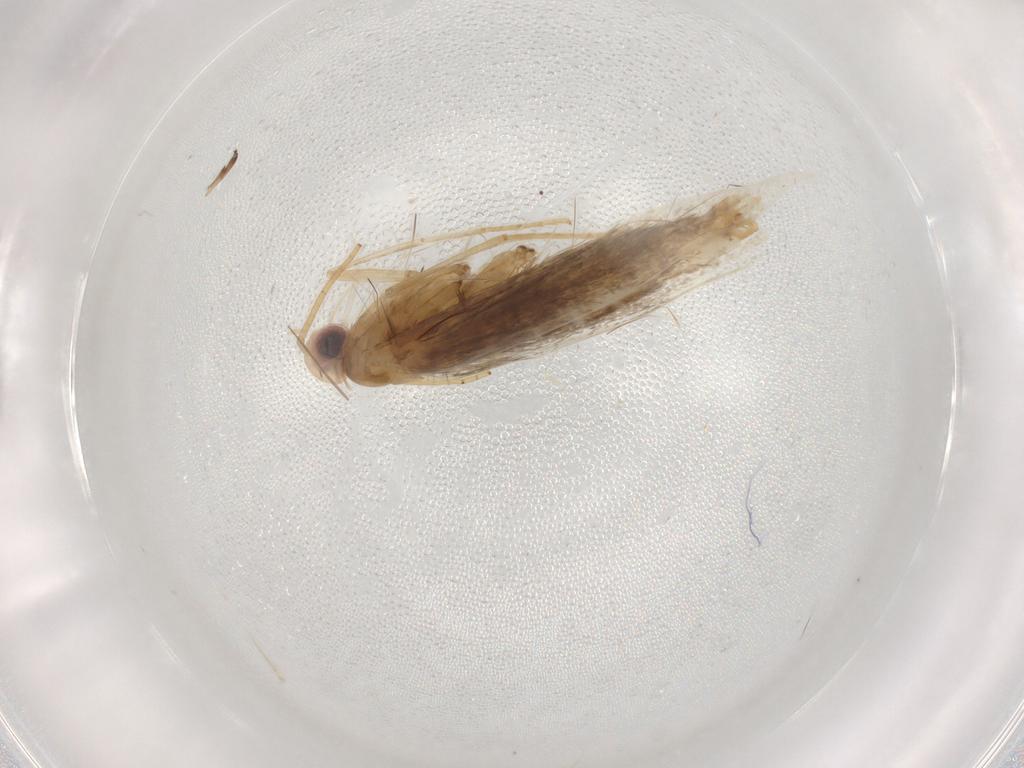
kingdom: Animalia
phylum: Arthropoda
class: Insecta
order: Lepidoptera
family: Coleophoridae
